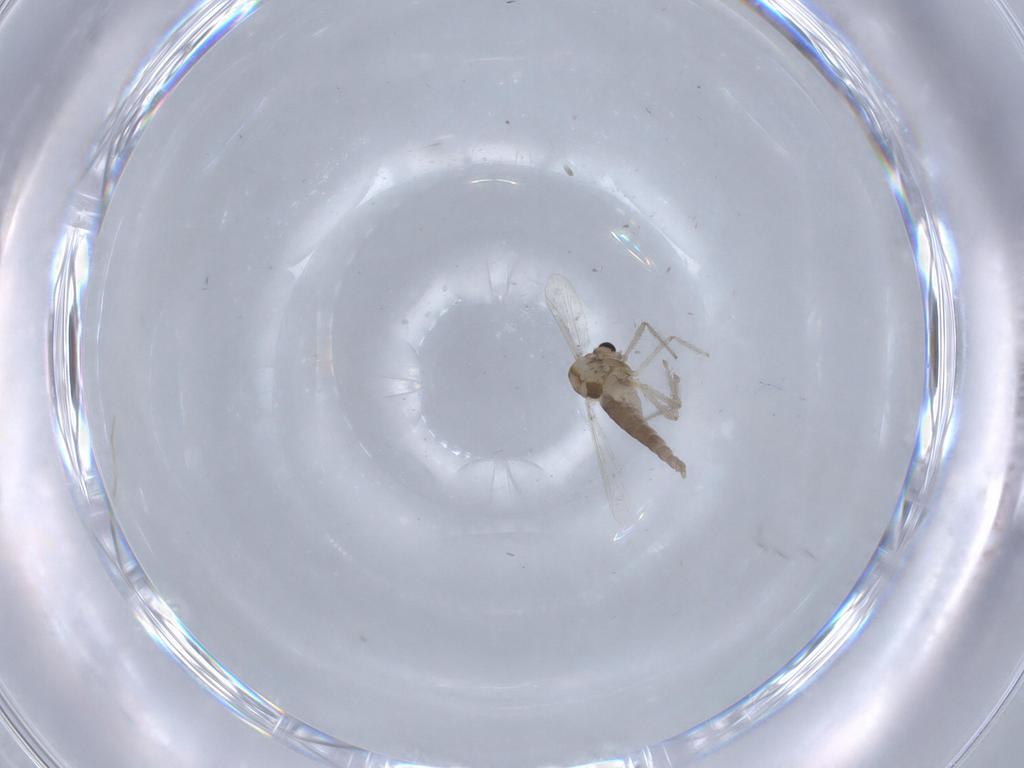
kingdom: Animalia
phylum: Arthropoda
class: Insecta
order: Diptera
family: Chironomidae
